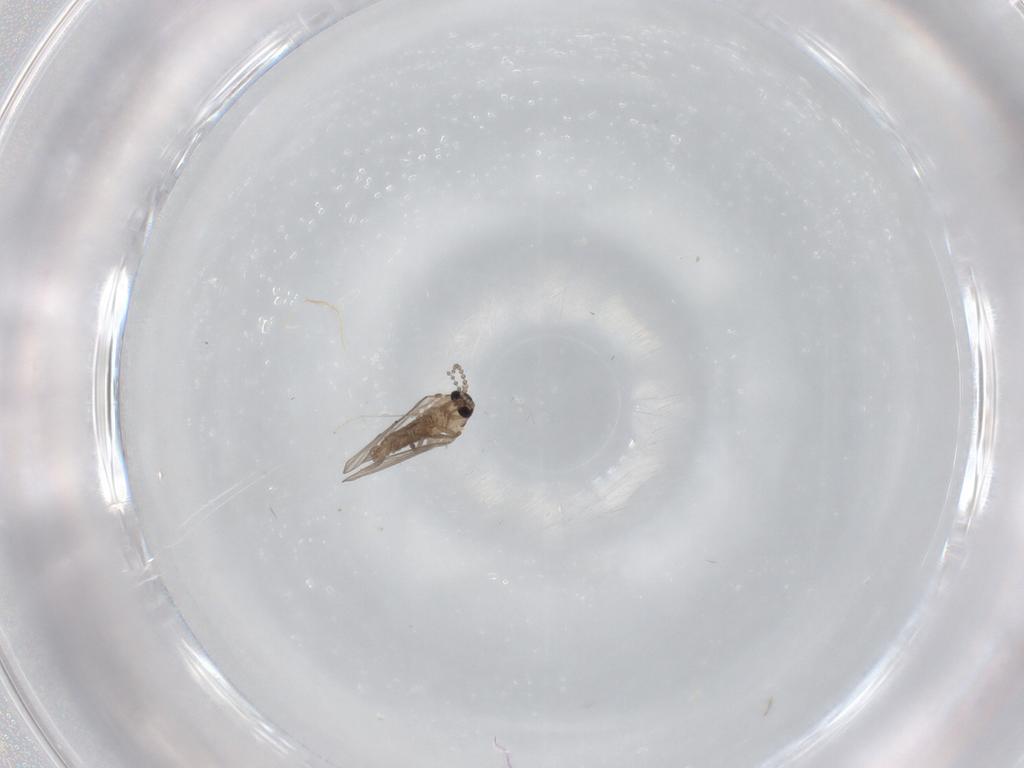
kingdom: Animalia
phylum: Arthropoda
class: Insecta
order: Diptera
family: Psychodidae
